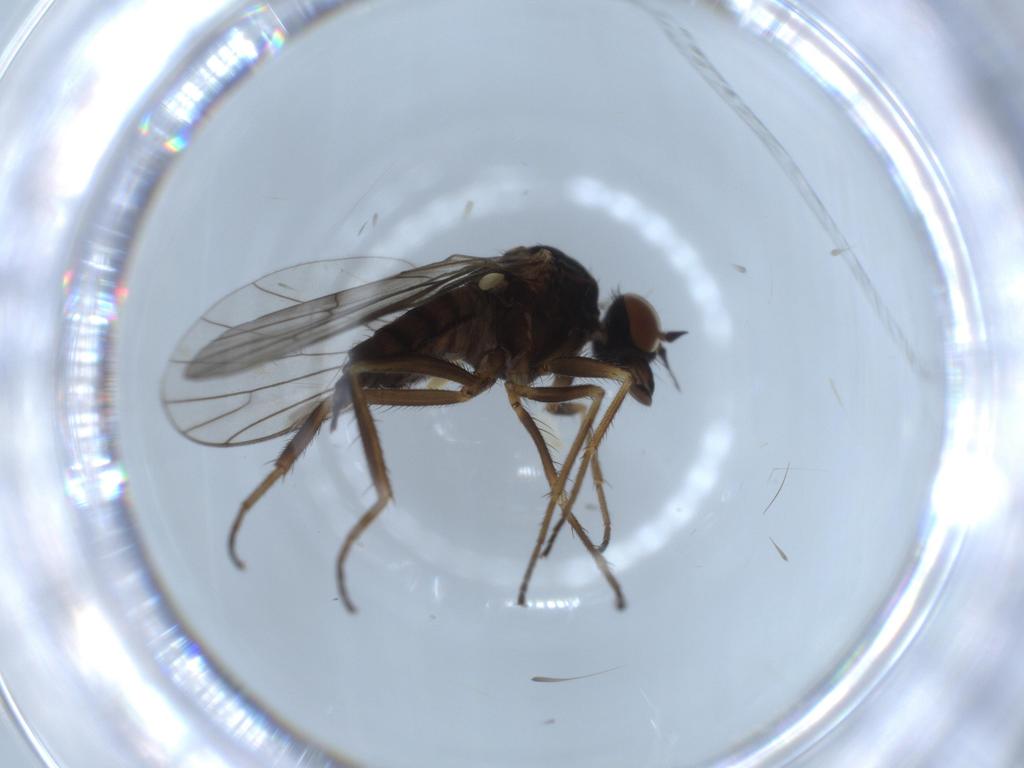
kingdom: Animalia
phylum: Arthropoda
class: Insecta
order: Diptera
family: Empididae
